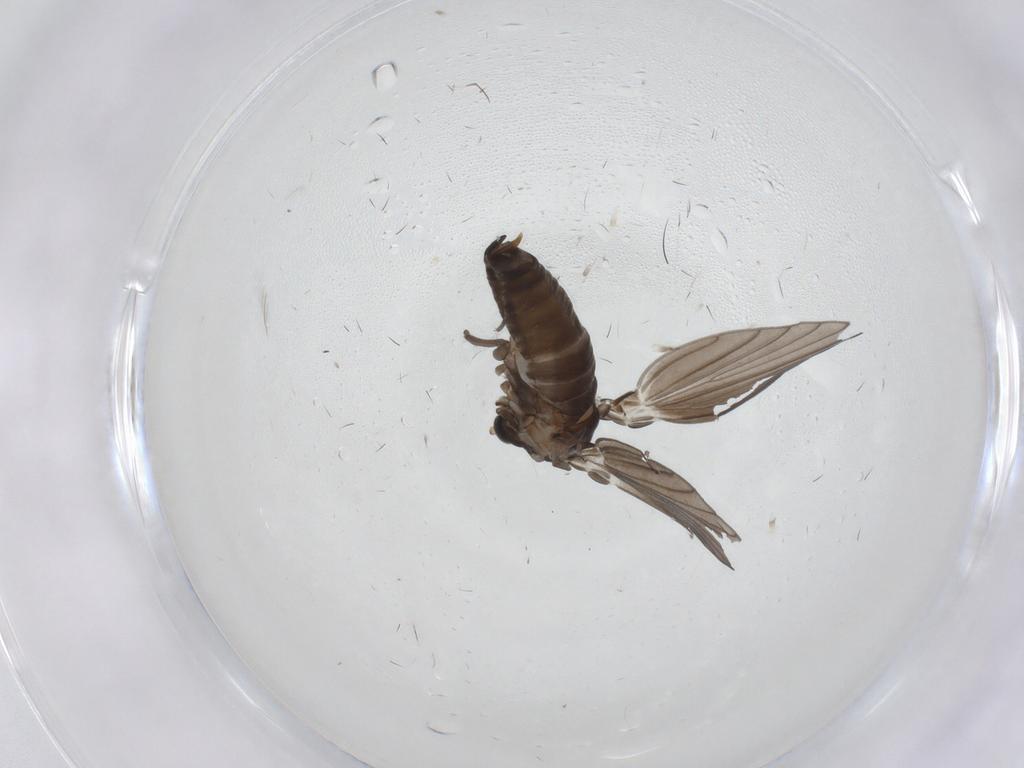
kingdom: Animalia
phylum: Arthropoda
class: Insecta
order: Diptera
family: Psychodidae
